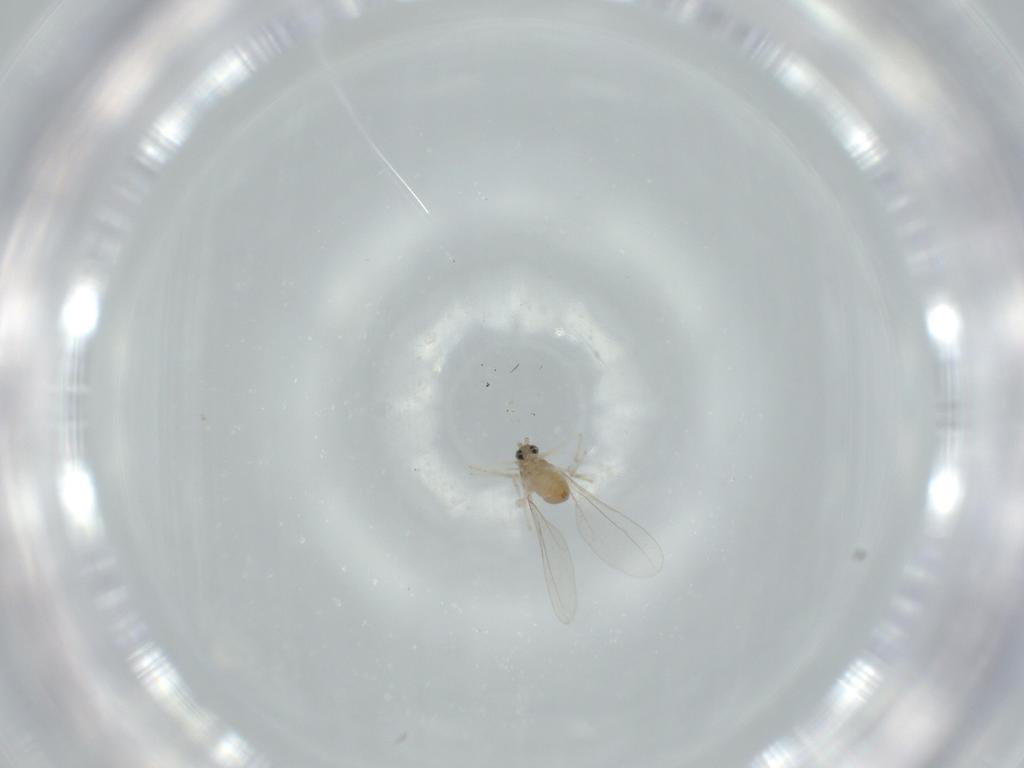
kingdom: Animalia
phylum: Arthropoda
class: Insecta
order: Diptera
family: Cecidomyiidae
